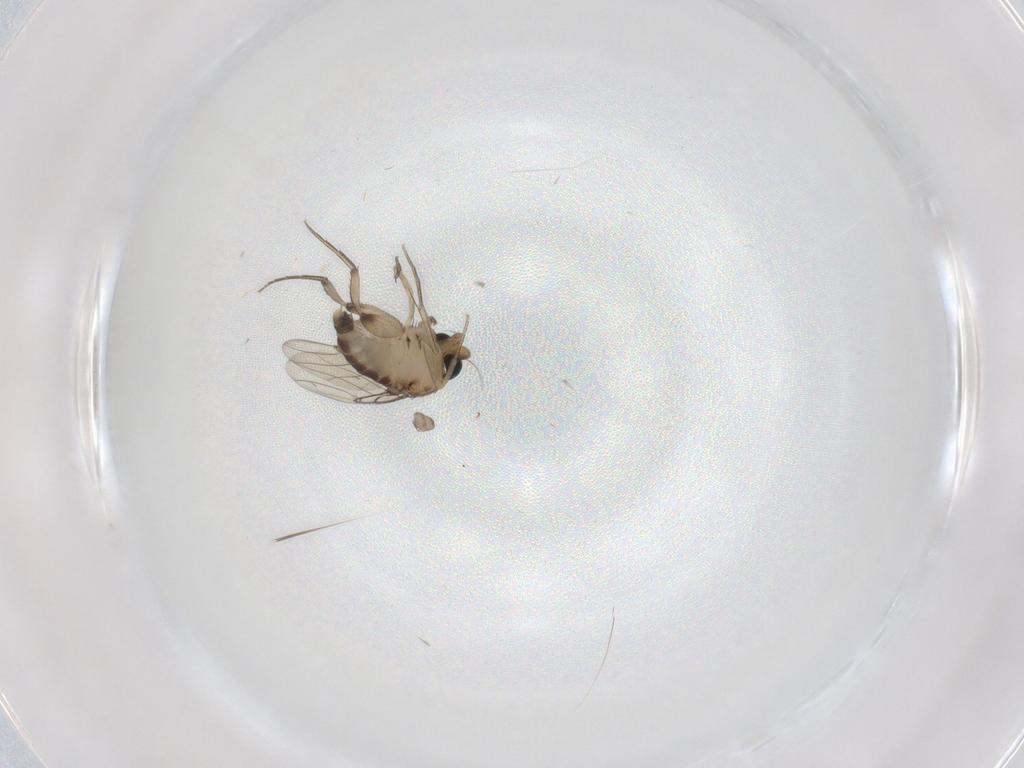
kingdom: Animalia
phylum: Arthropoda
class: Insecta
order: Diptera
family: Phoridae
